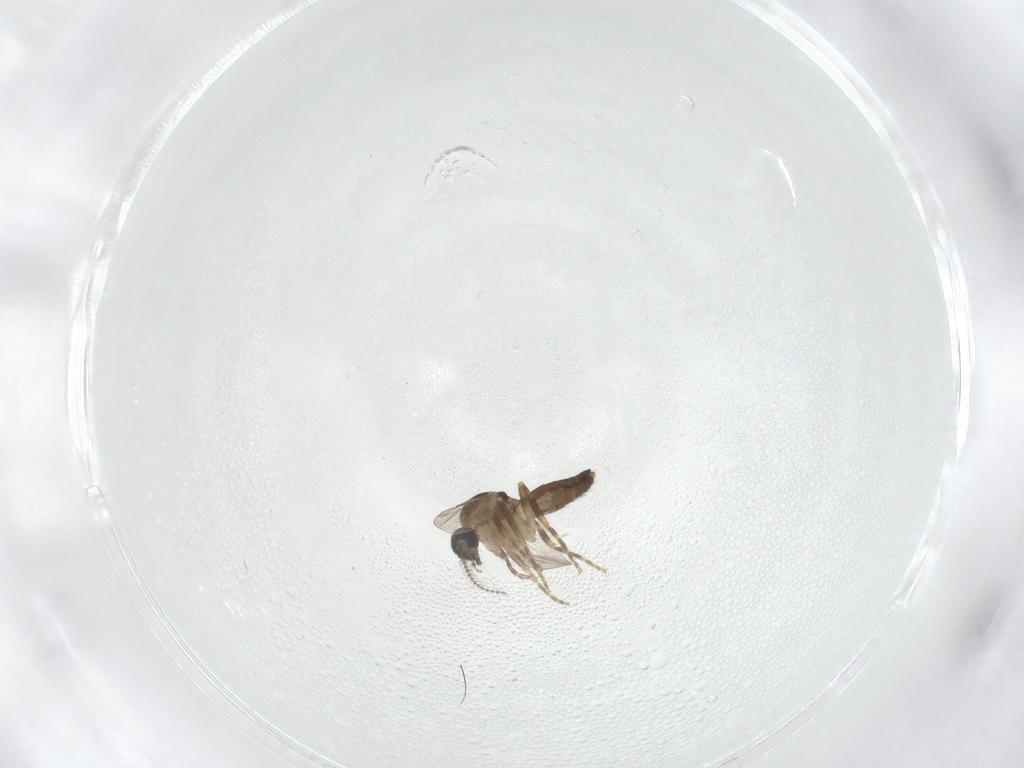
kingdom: Animalia
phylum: Arthropoda
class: Insecta
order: Diptera
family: Ceratopogonidae
